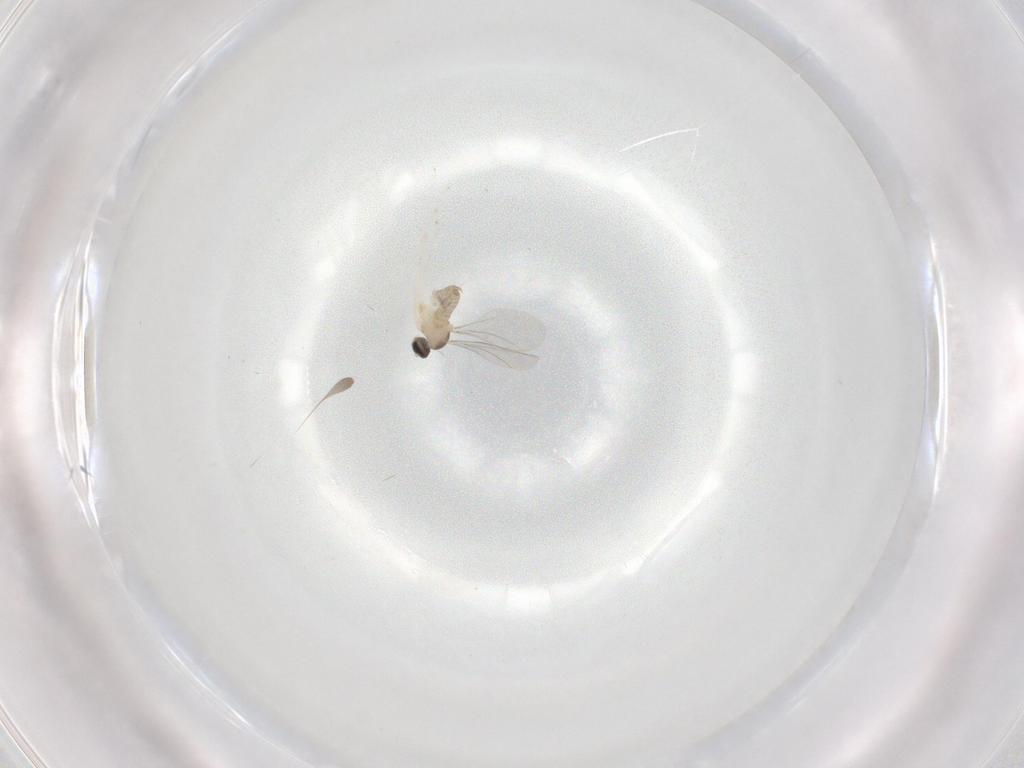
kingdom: Animalia
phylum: Arthropoda
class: Insecta
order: Diptera
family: Cecidomyiidae
